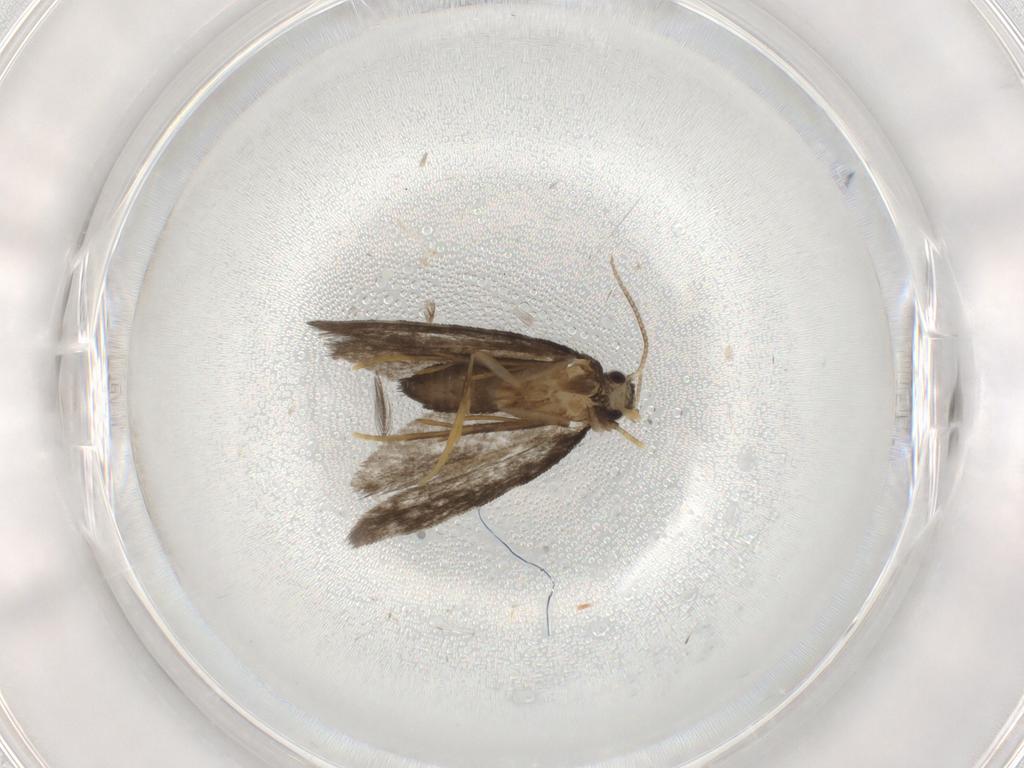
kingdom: Animalia
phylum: Arthropoda
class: Insecta
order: Lepidoptera
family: Psychidae
